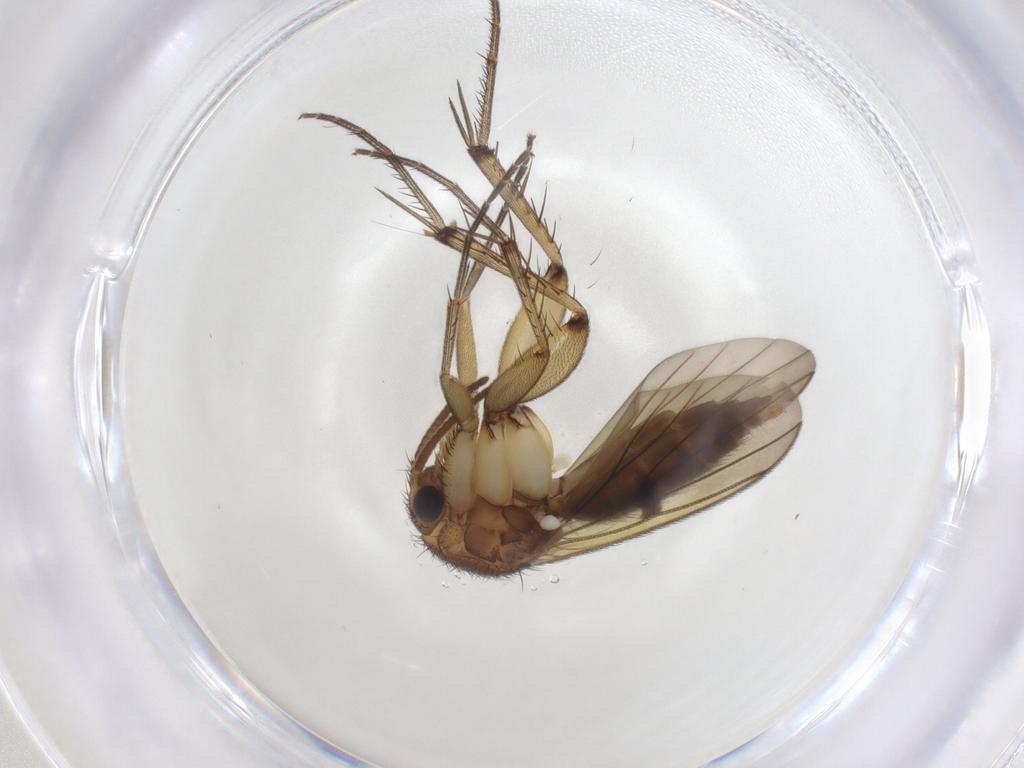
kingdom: Animalia
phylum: Arthropoda
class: Insecta
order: Diptera
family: Mycetophilidae
